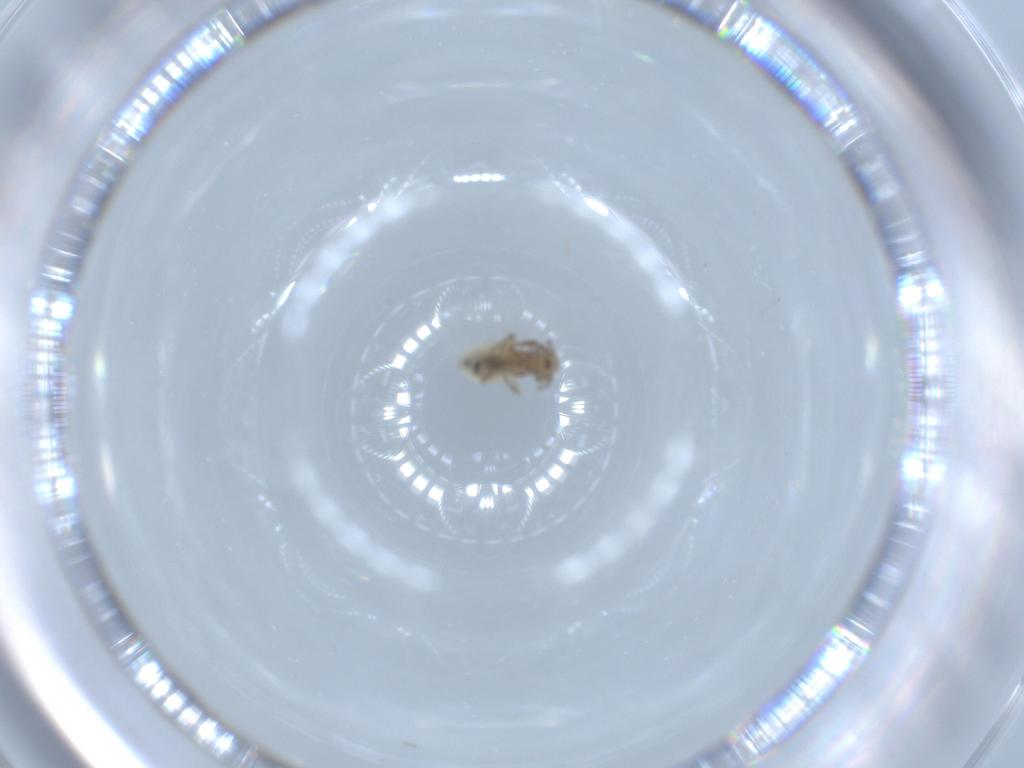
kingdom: Animalia
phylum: Arthropoda
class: Insecta
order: Psocodea
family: Lepidopsocidae
